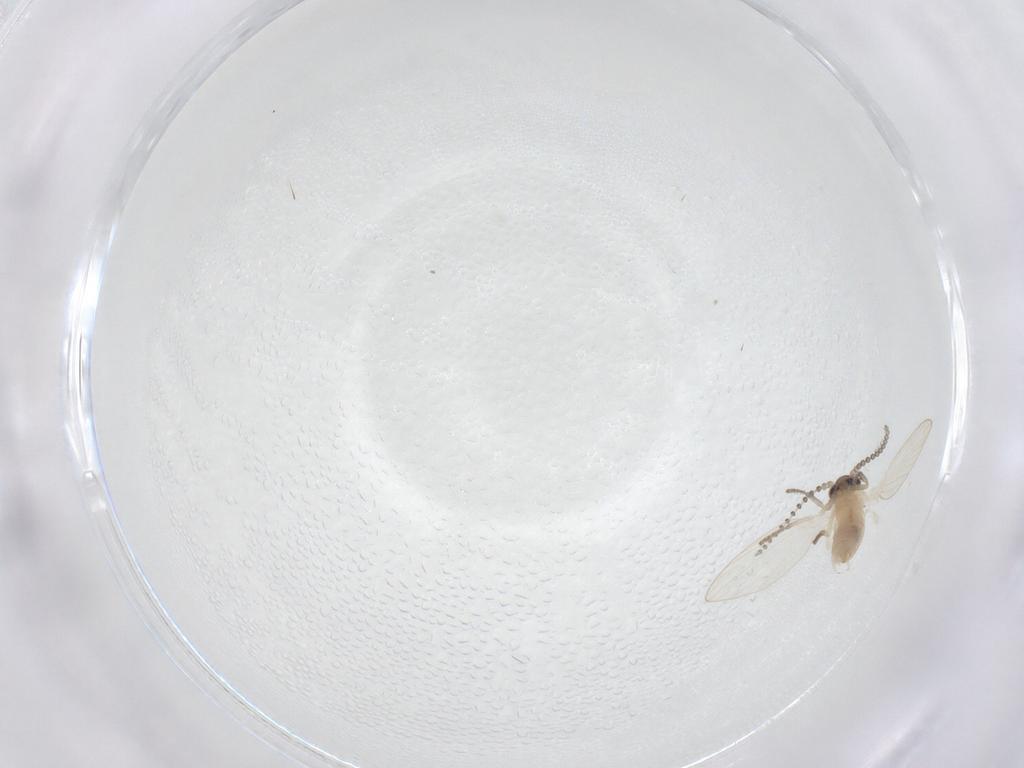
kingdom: Animalia
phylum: Arthropoda
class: Insecta
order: Diptera
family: Psychodidae
